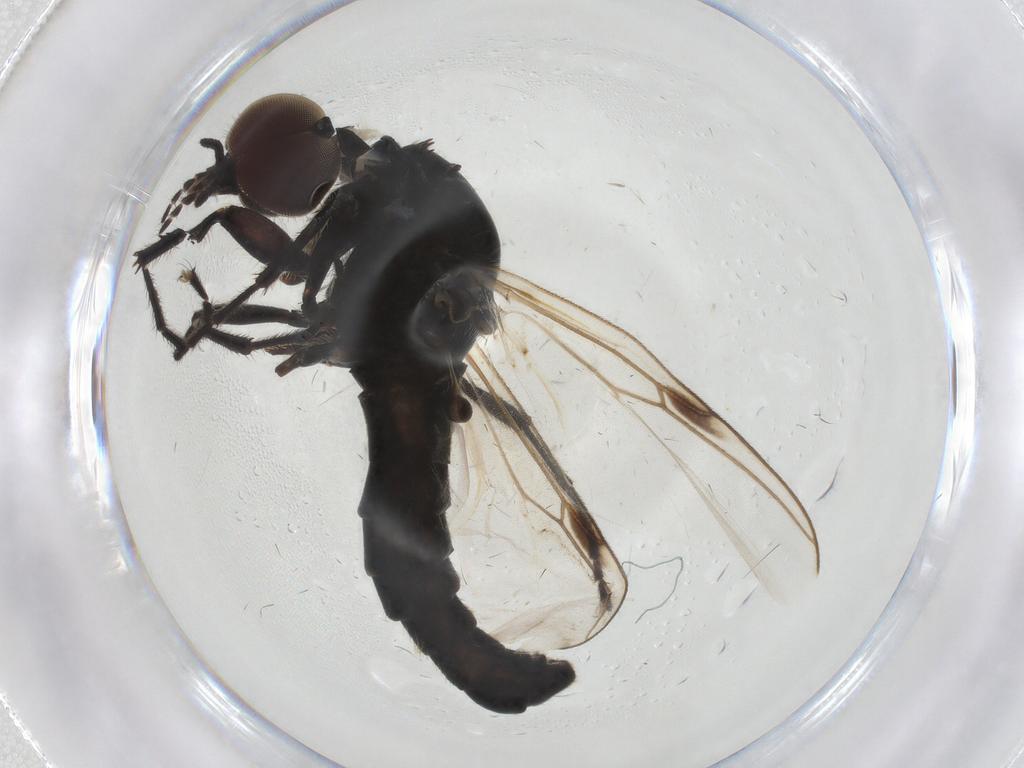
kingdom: Animalia
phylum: Arthropoda
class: Insecta
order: Diptera
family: Bibionidae
